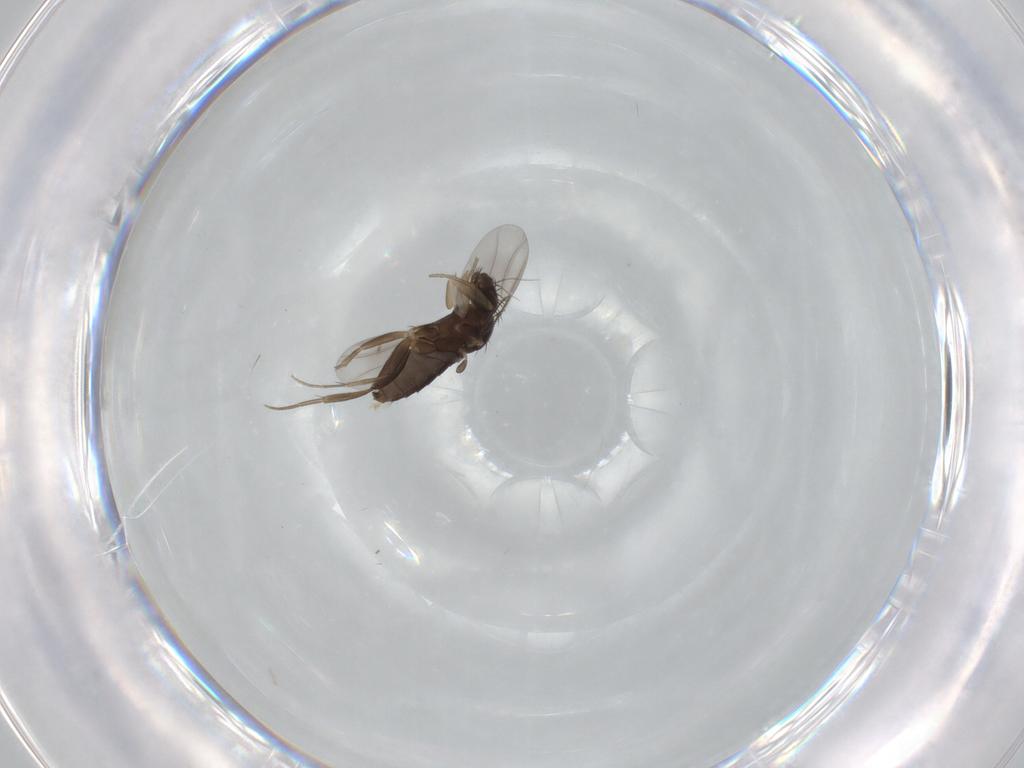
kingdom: Animalia
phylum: Arthropoda
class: Insecta
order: Diptera
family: Phoridae
